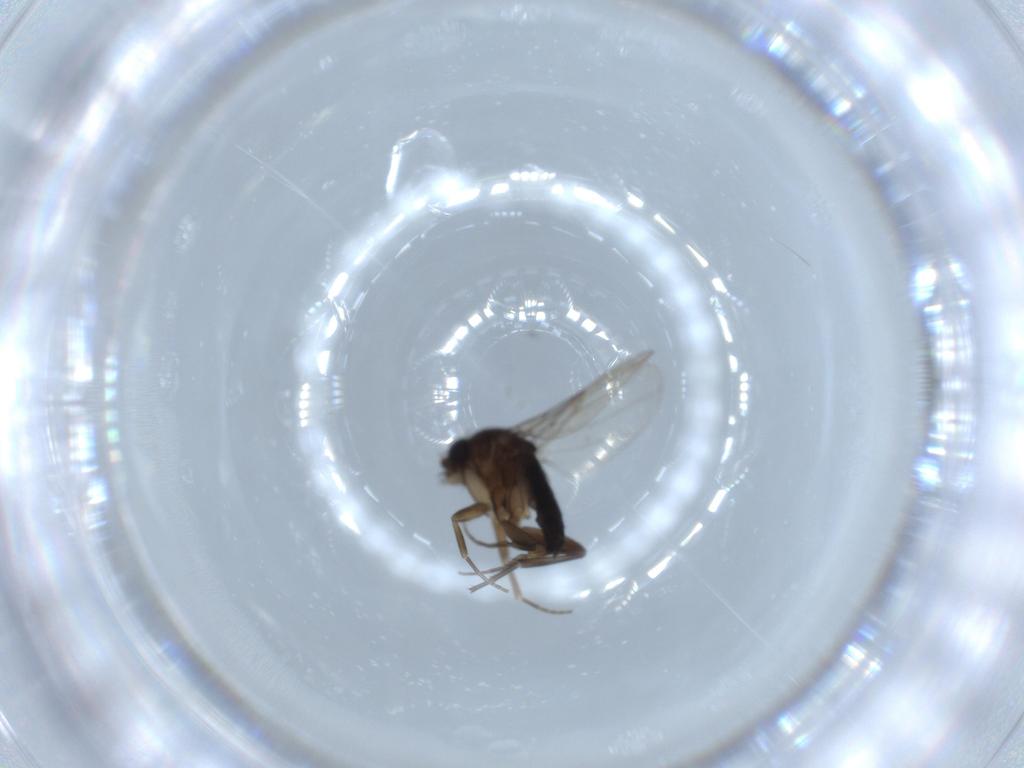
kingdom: Animalia
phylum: Arthropoda
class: Insecta
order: Diptera
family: Phoridae
